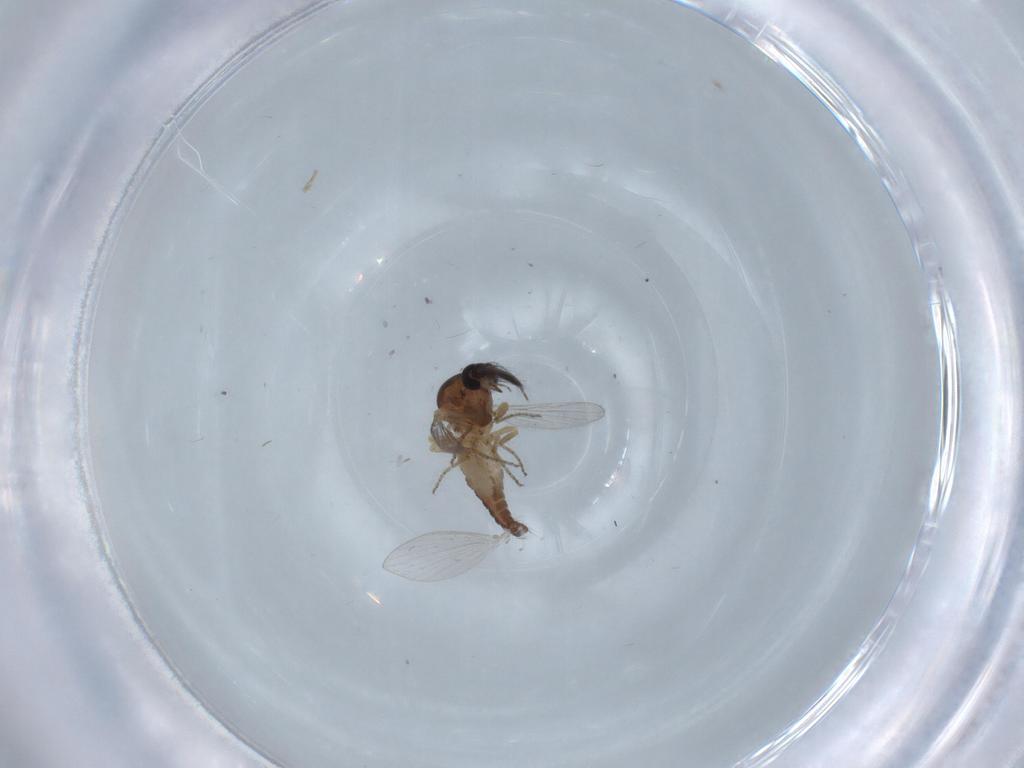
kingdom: Animalia
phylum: Arthropoda
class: Insecta
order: Diptera
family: Ceratopogonidae
